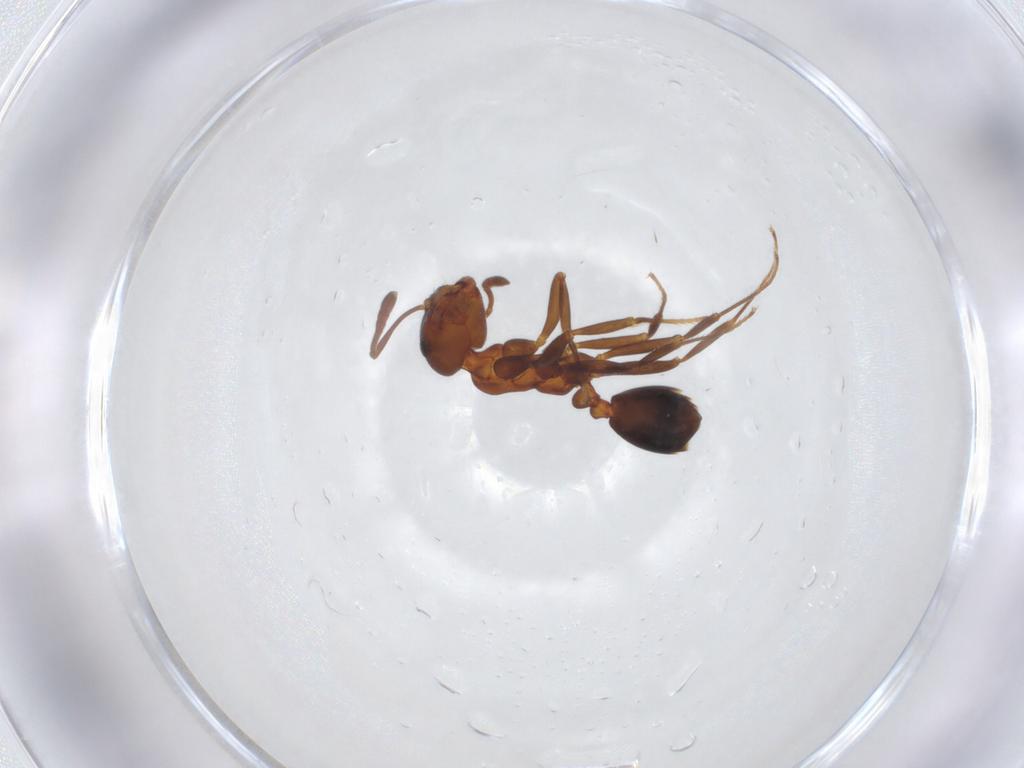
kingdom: Animalia
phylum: Arthropoda
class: Insecta
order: Hymenoptera
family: Formicidae
